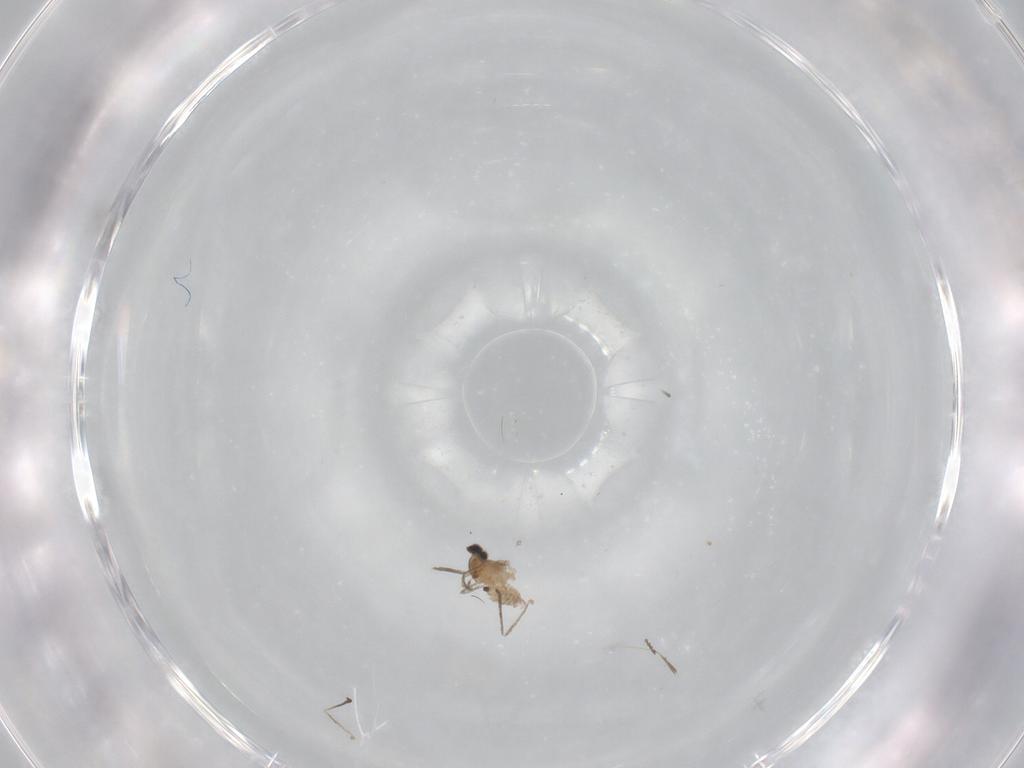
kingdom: Animalia
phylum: Arthropoda
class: Insecta
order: Diptera
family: Cecidomyiidae
